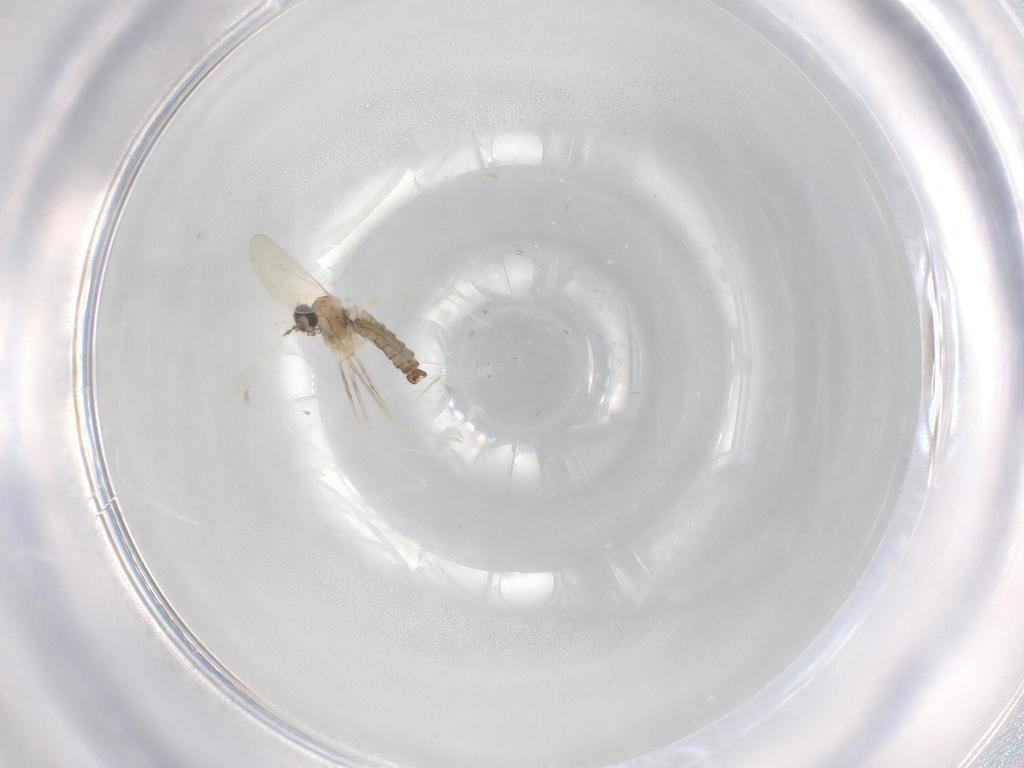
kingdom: Animalia
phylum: Arthropoda
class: Insecta
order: Diptera
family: Cecidomyiidae
